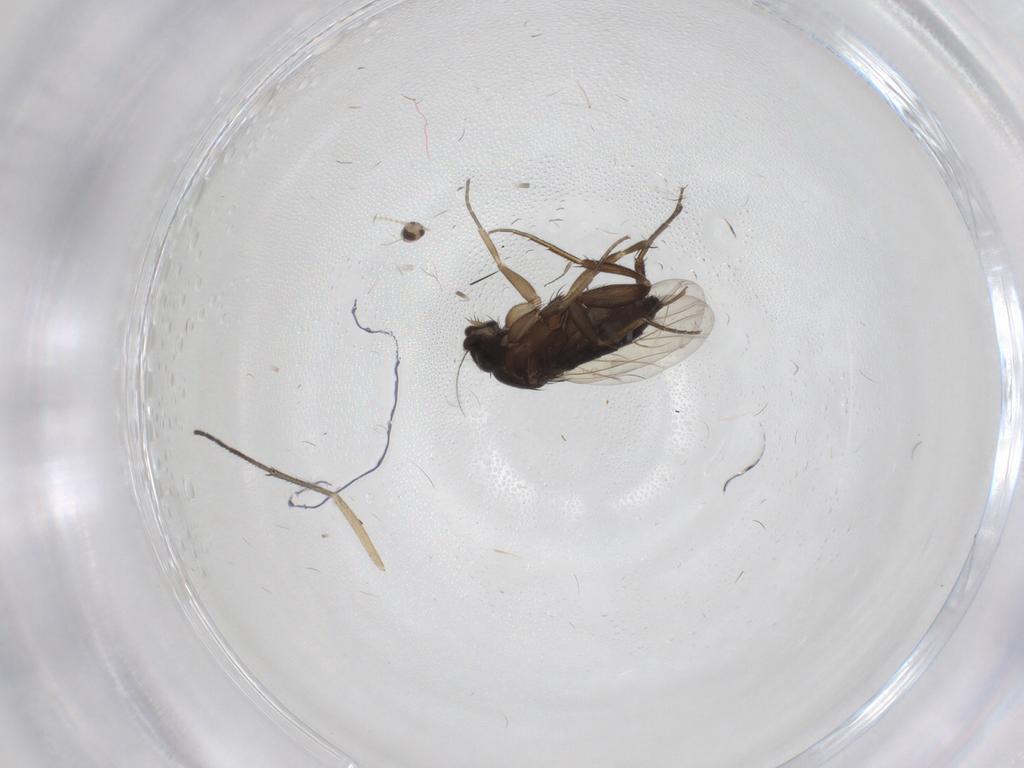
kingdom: Animalia
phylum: Arthropoda
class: Insecta
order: Diptera
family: Phoridae
